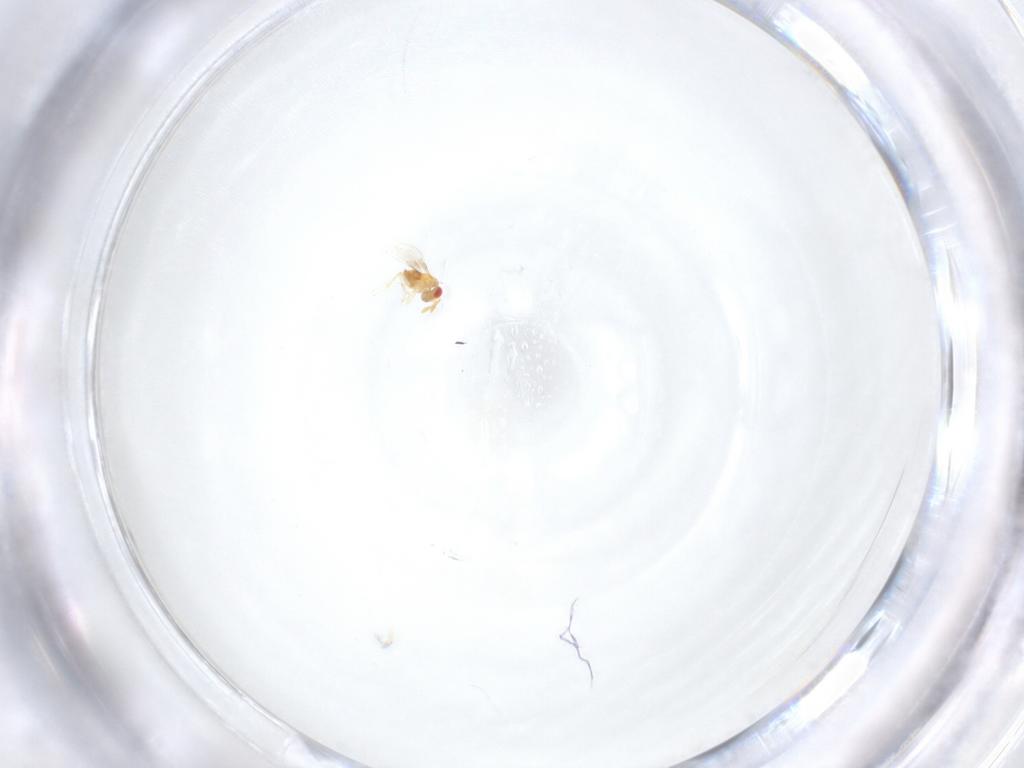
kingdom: Animalia
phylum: Arthropoda
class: Insecta
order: Hymenoptera
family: Trichogrammatidae
